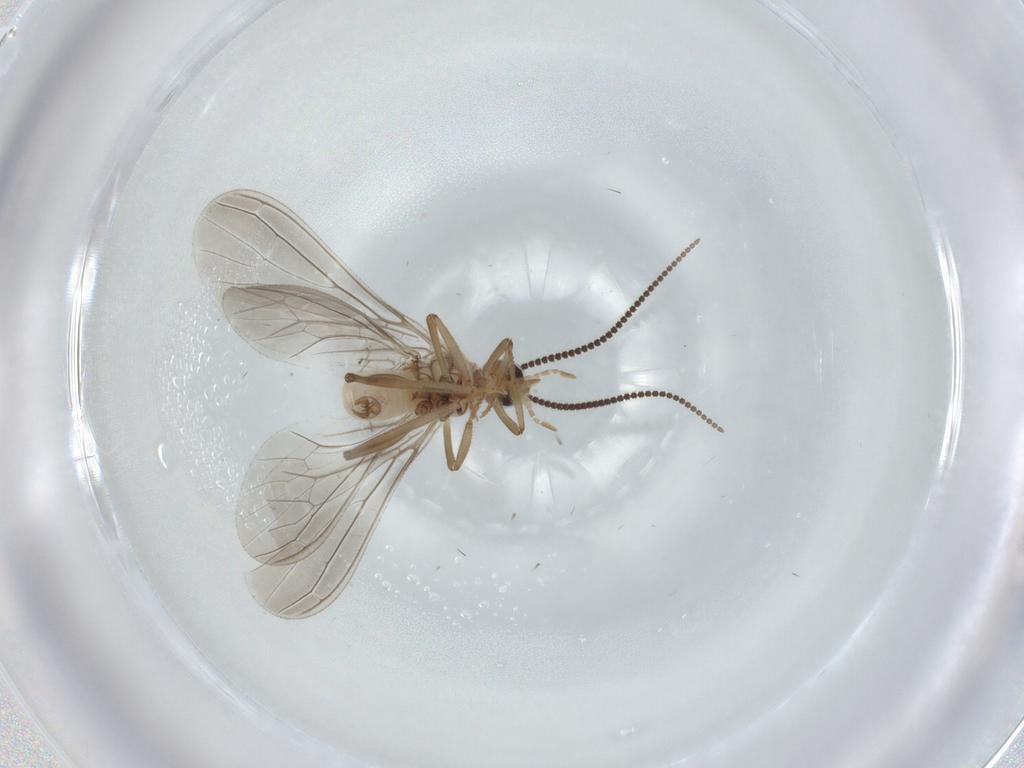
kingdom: Animalia
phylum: Arthropoda
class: Insecta
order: Neuroptera
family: Coniopterygidae
